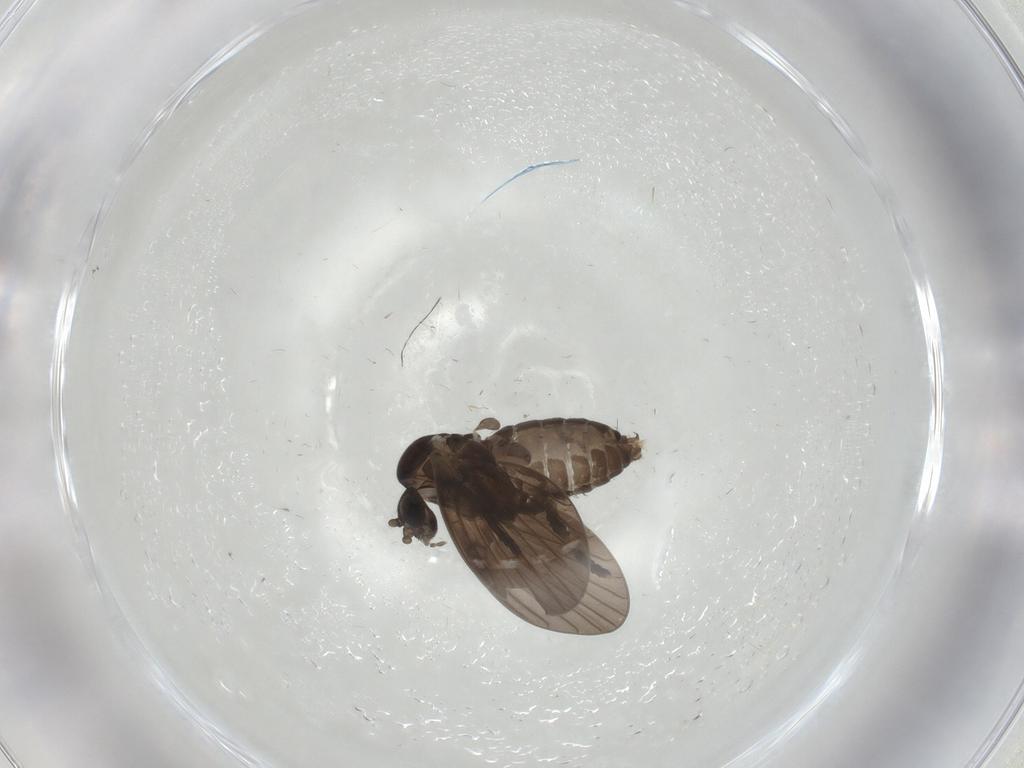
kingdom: Animalia
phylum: Arthropoda
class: Insecta
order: Diptera
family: Psychodidae
